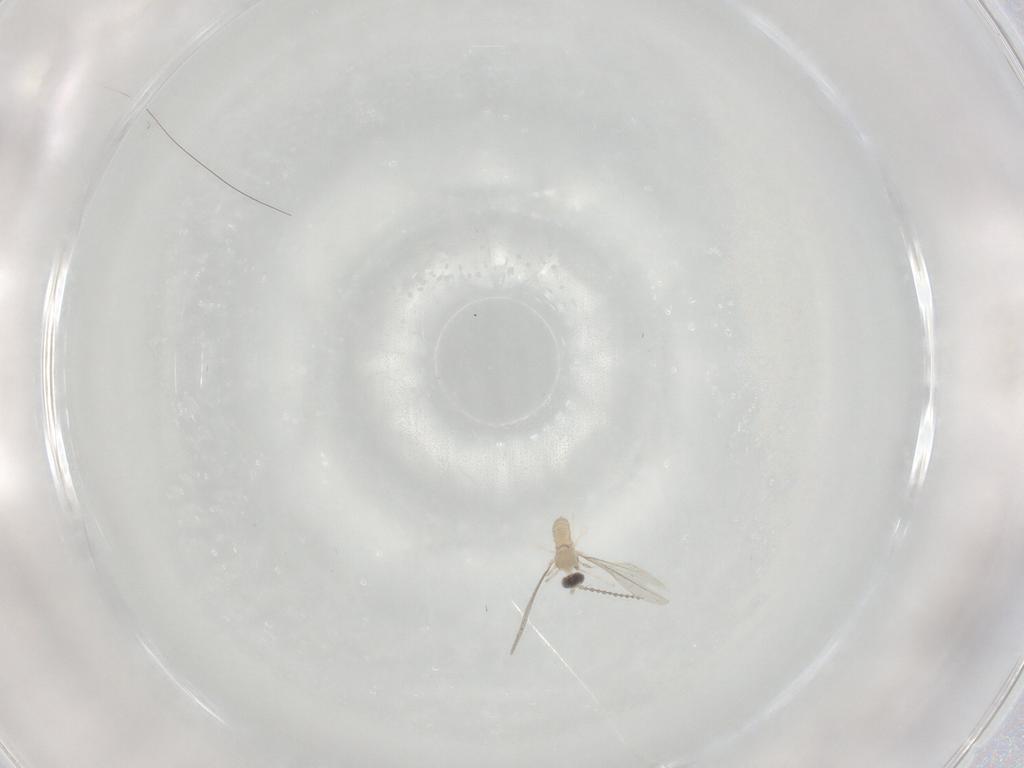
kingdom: Animalia
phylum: Arthropoda
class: Insecta
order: Diptera
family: Cecidomyiidae
